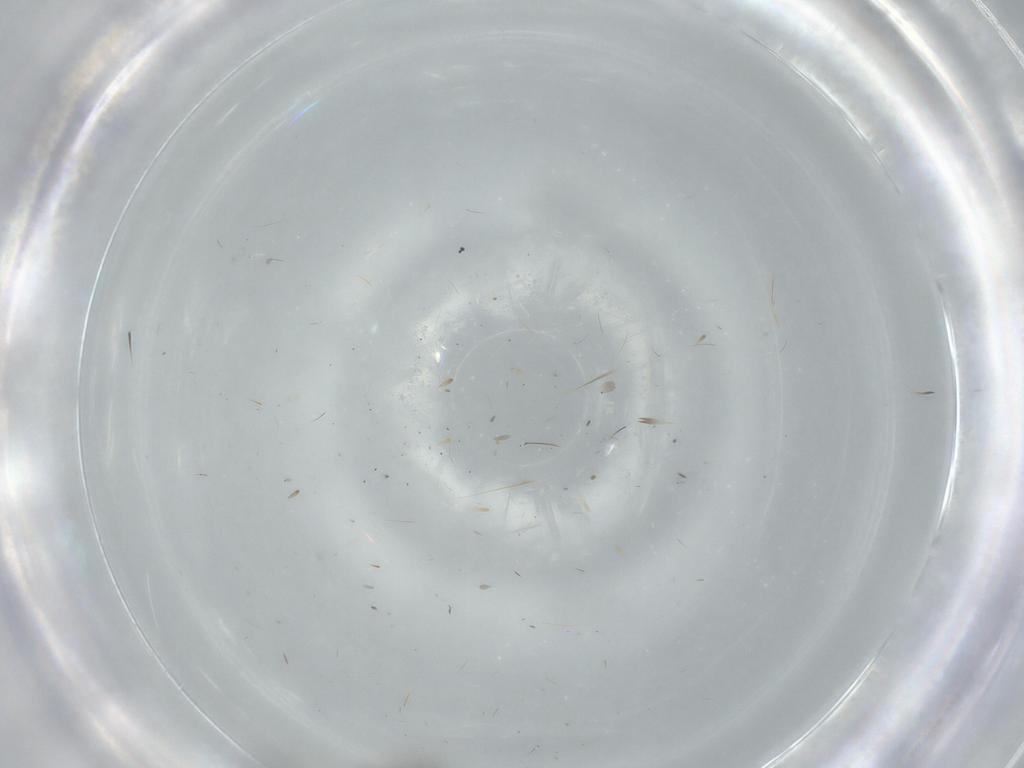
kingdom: Animalia
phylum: Arthropoda
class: Insecta
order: Diptera
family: Chironomidae
